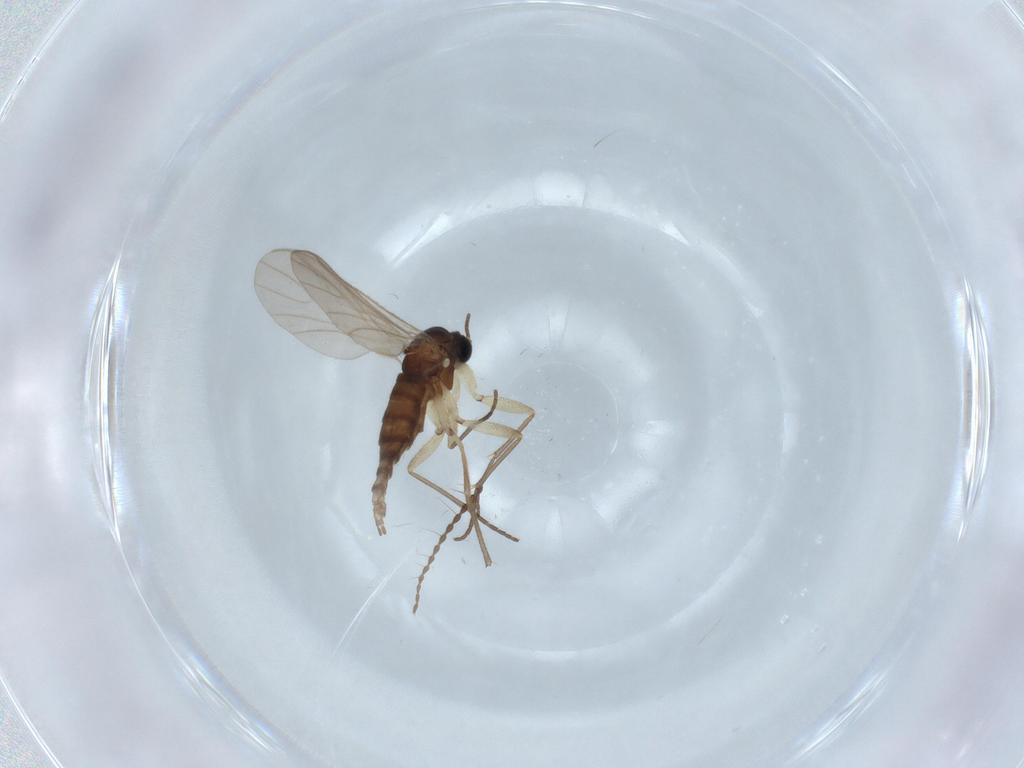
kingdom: Animalia
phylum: Arthropoda
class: Insecta
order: Diptera
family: Sciaridae
